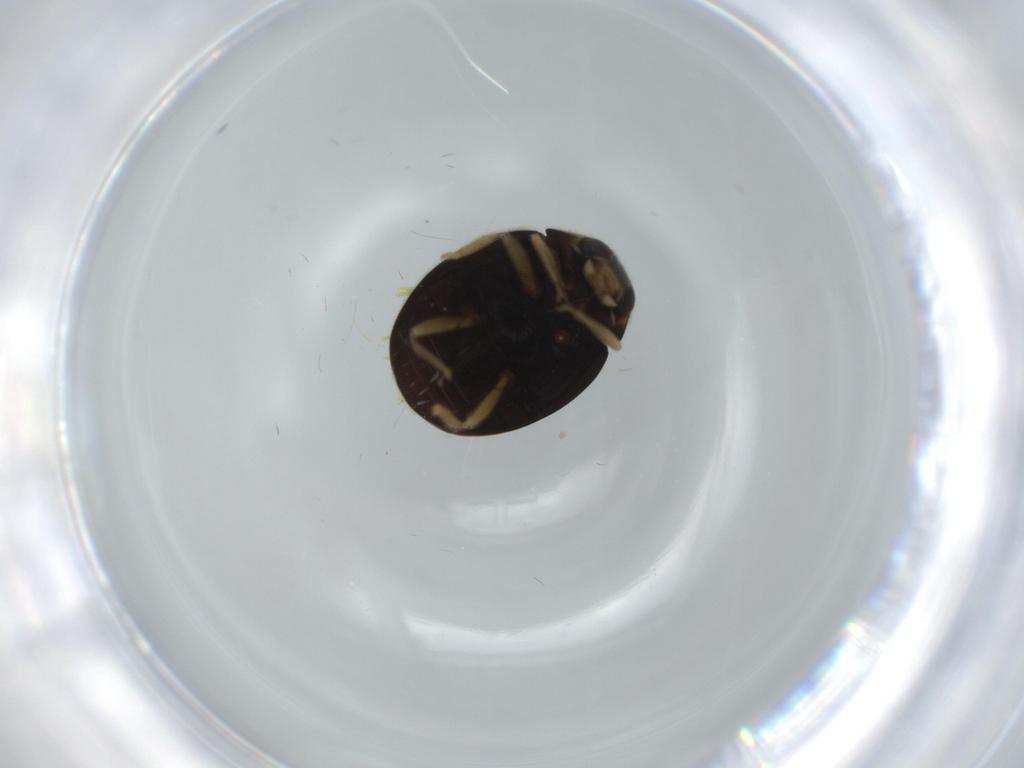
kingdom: Animalia
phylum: Arthropoda
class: Insecta
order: Coleoptera
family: Coccinellidae
